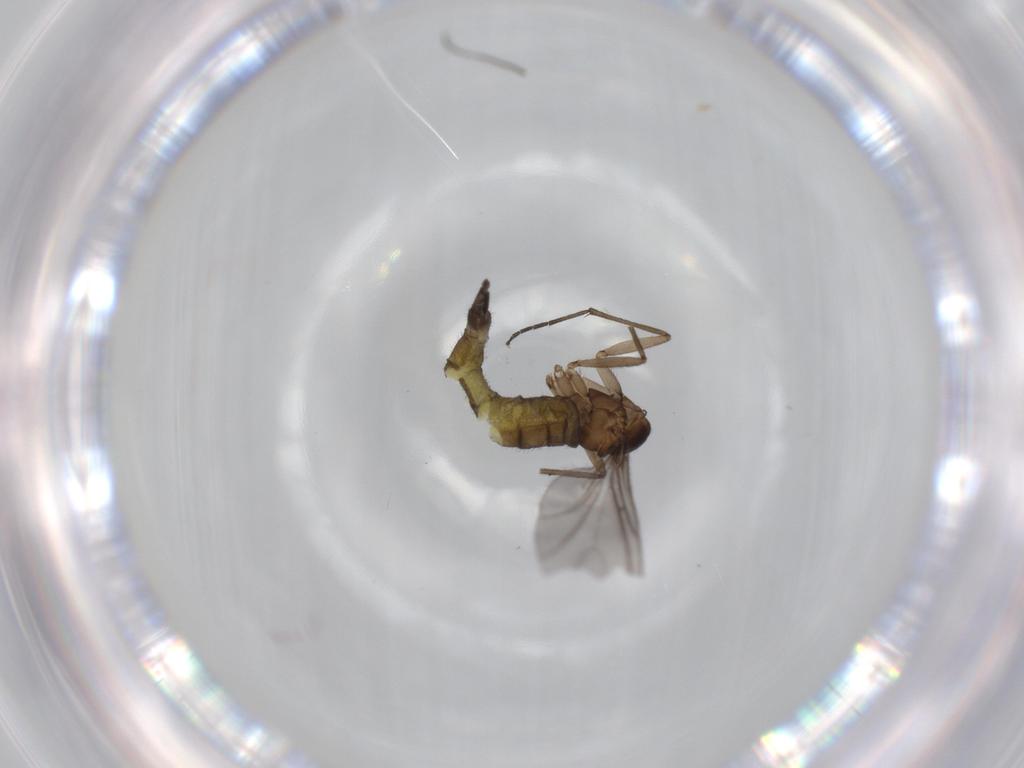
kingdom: Animalia
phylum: Arthropoda
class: Insecta
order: Diptera
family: Sciaridae
